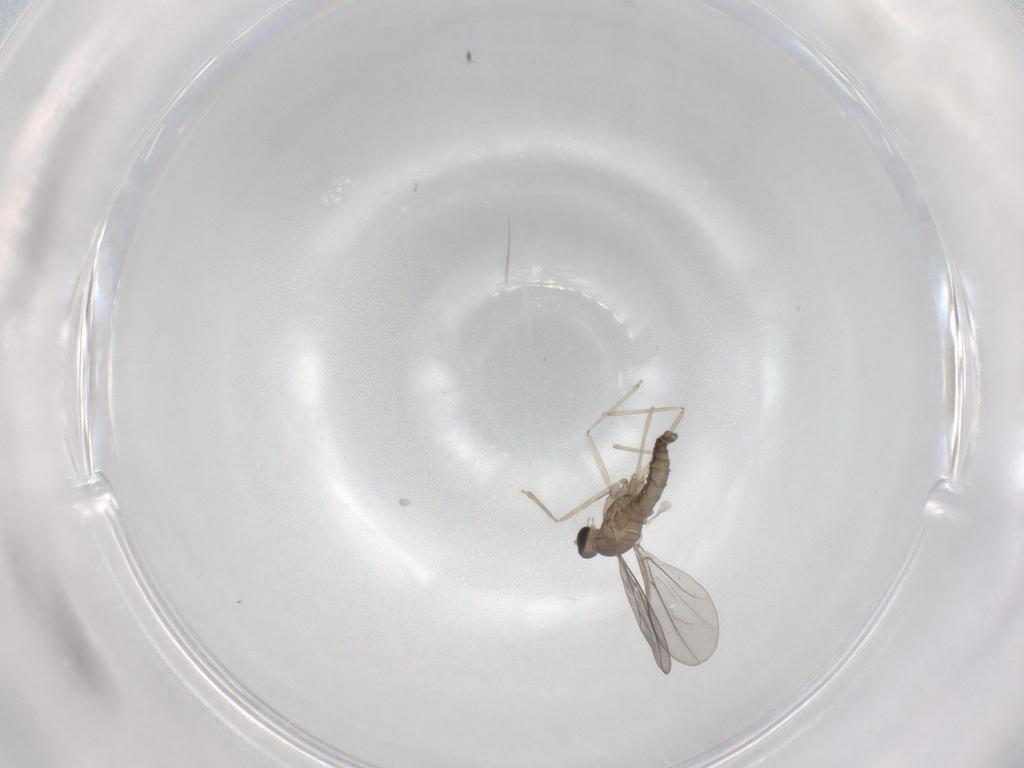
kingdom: Animalia
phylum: Arthropoda
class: Insecta
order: Diptera
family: Cecidomyiidae
